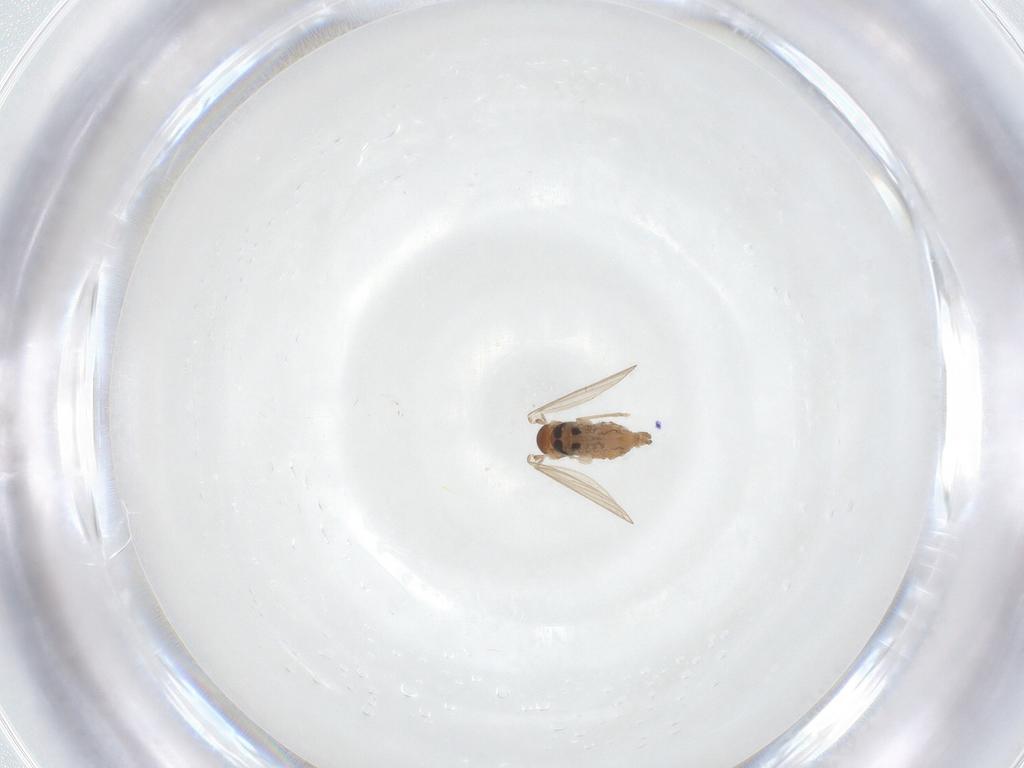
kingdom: Animalia
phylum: Arthropoda
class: Insecta
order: Diptera
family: Psychodidae
